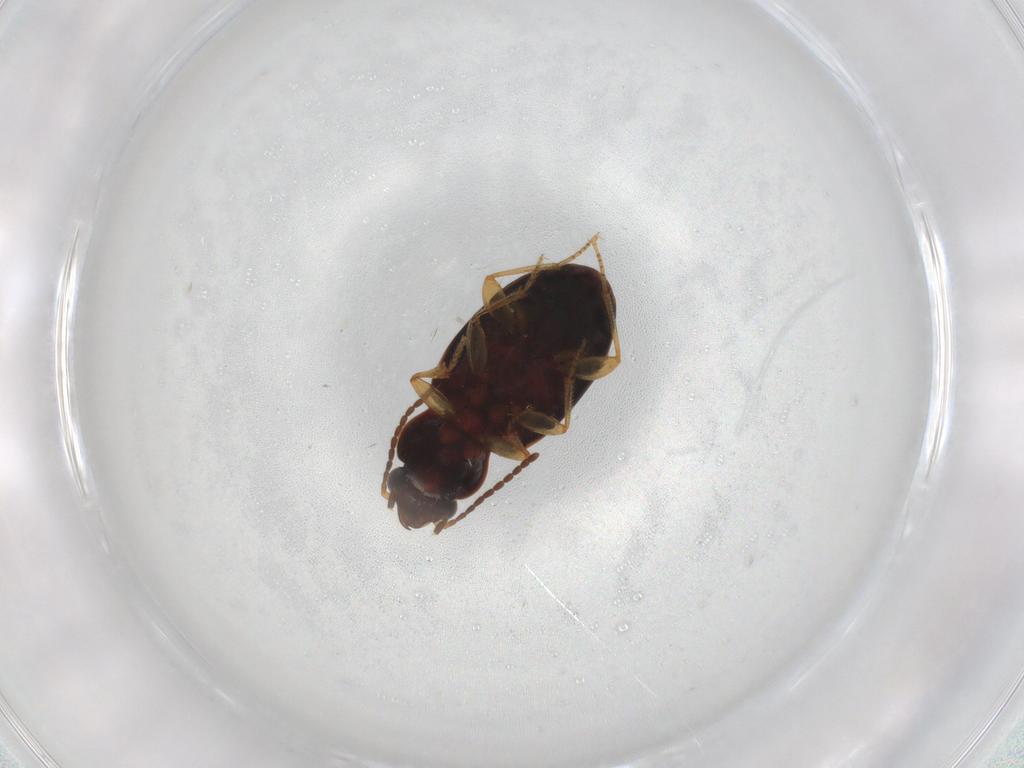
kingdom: Animalia
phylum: Arthropoda
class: Insecta
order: Coleoptera
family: Carabidae
